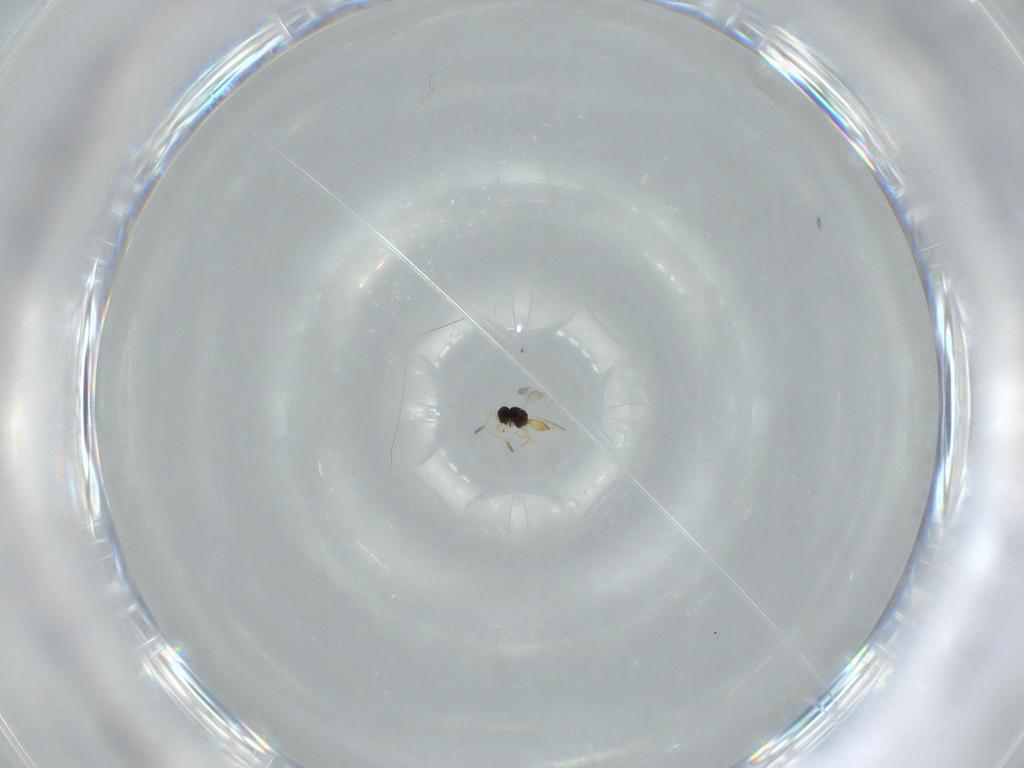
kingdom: Animalia
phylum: Arthropoda
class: Insecta
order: Hymenoptera
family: Scelionidae
